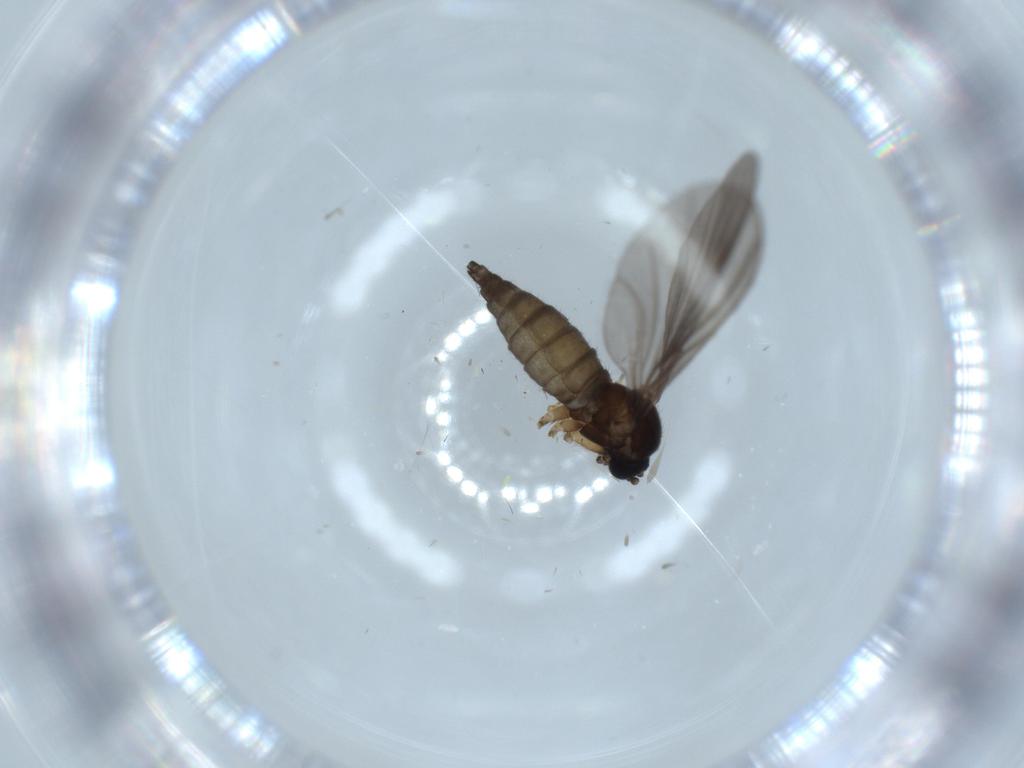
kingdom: Animalia
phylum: Arthropoda
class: Insecta
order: Diptera
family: Sciaridae
